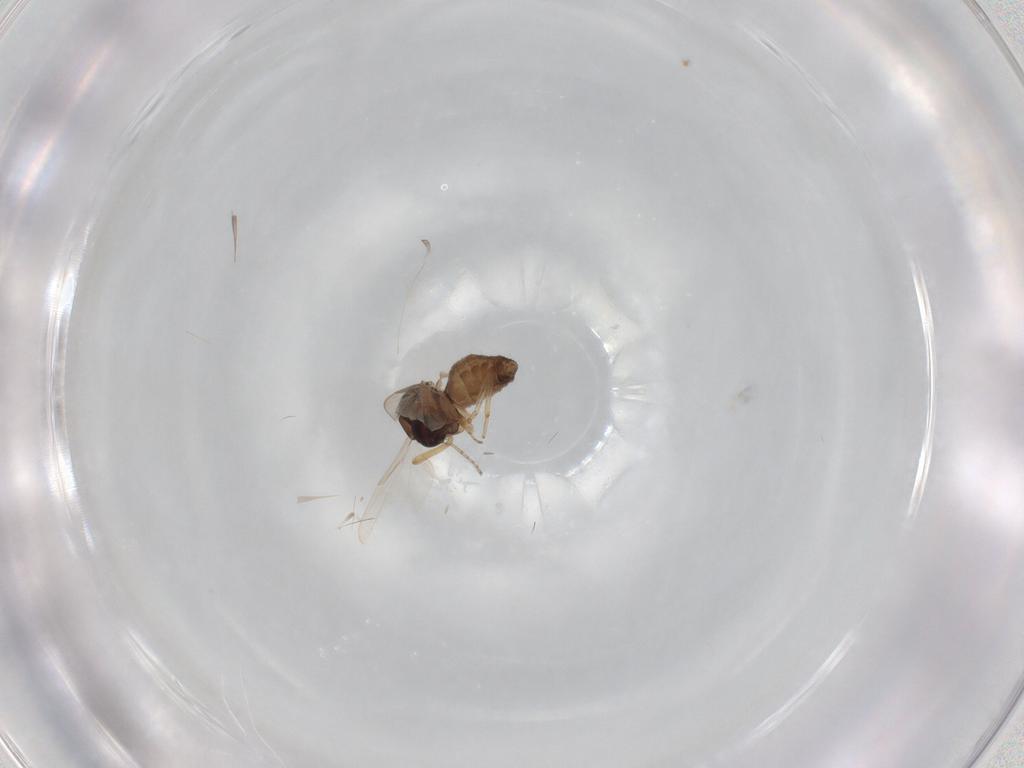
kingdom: Animalia
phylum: Arthropoda
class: Insecta
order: Diptera
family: Ceratopogonidae
